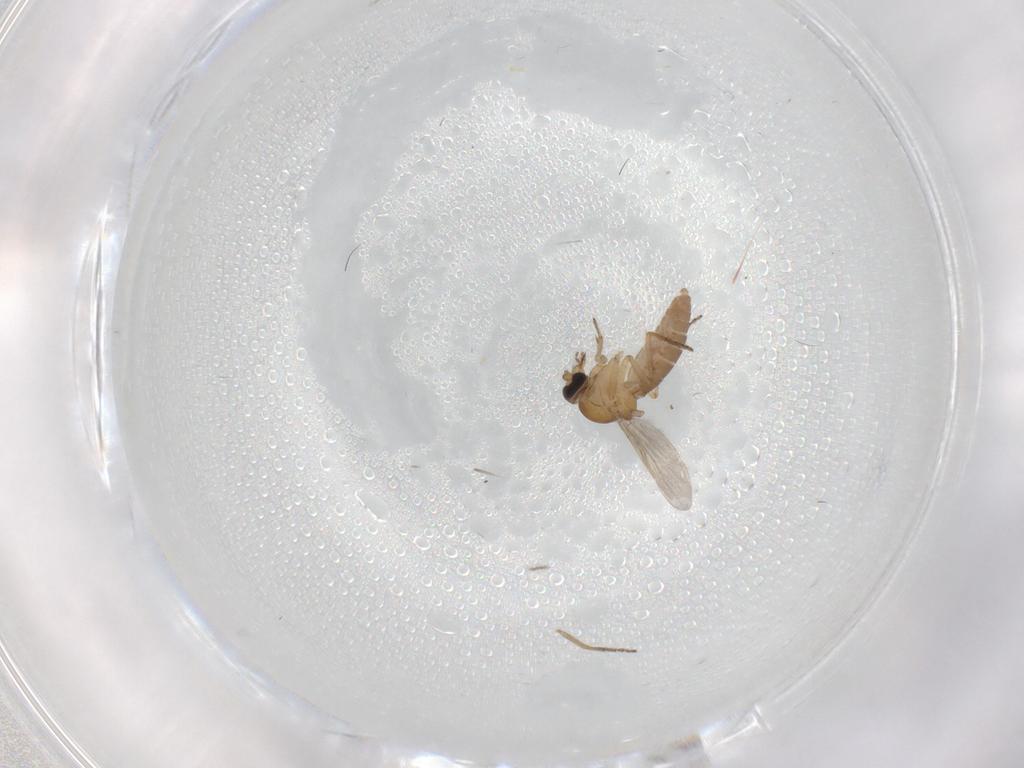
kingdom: Animalia
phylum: Arthropoda
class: Insecta
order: Diptera
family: Ceratopogonidae
